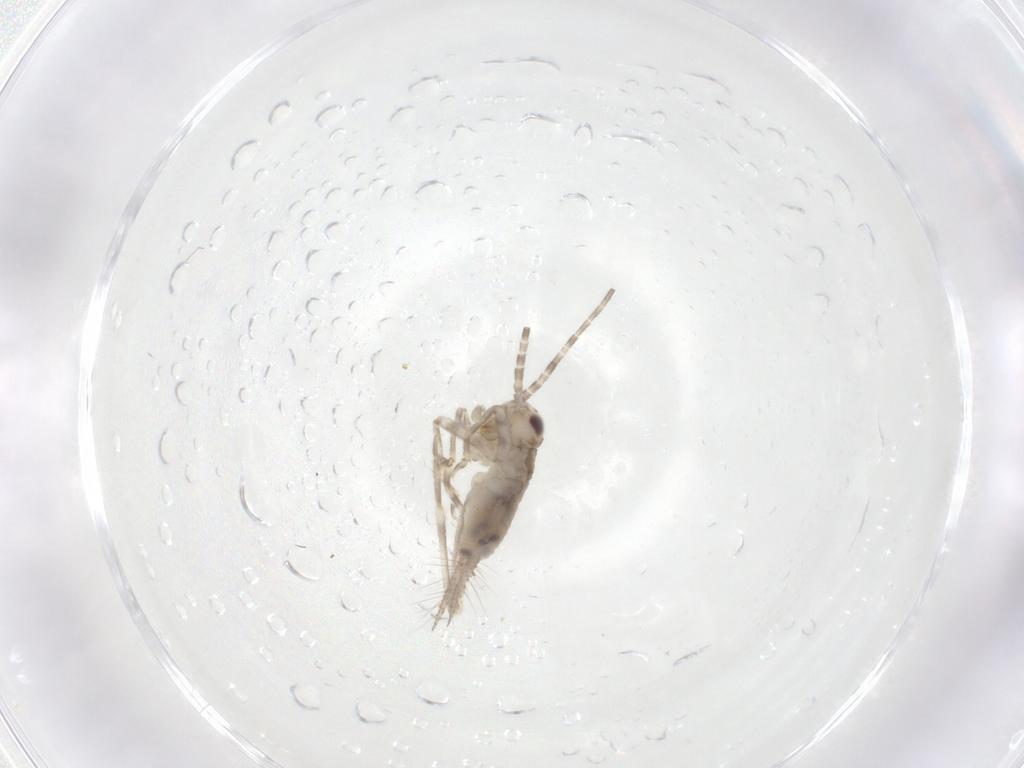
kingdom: Animalia
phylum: Arthropoda
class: Insecta
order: Orthoptera
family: Trigonidiidae
